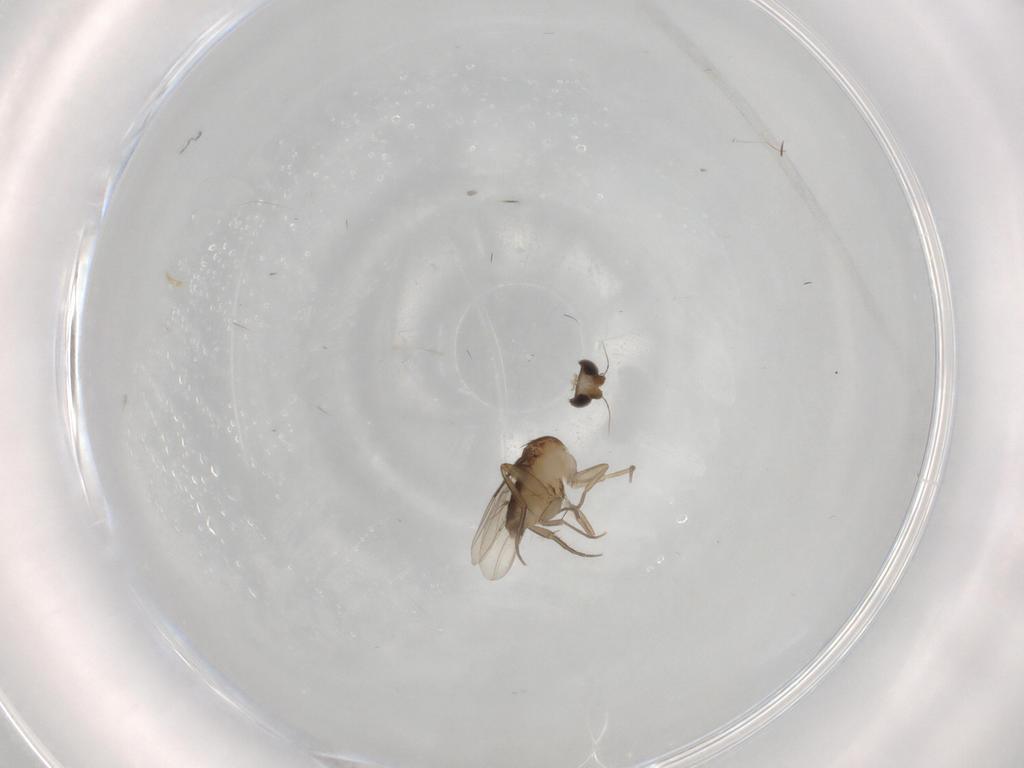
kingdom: Animalia
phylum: Arthropoda
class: Insecta
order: Diptera
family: Phoridae
